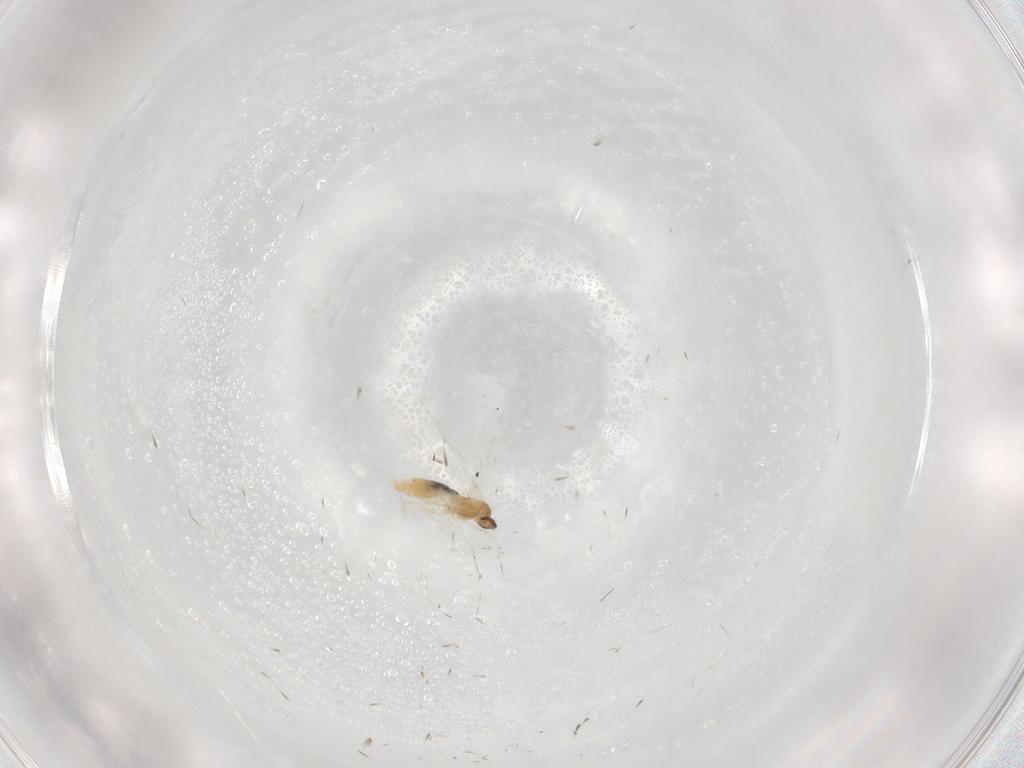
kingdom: Animalia
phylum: Arthropoda
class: Insecta
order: Diptera
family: Cecidomyiidae
